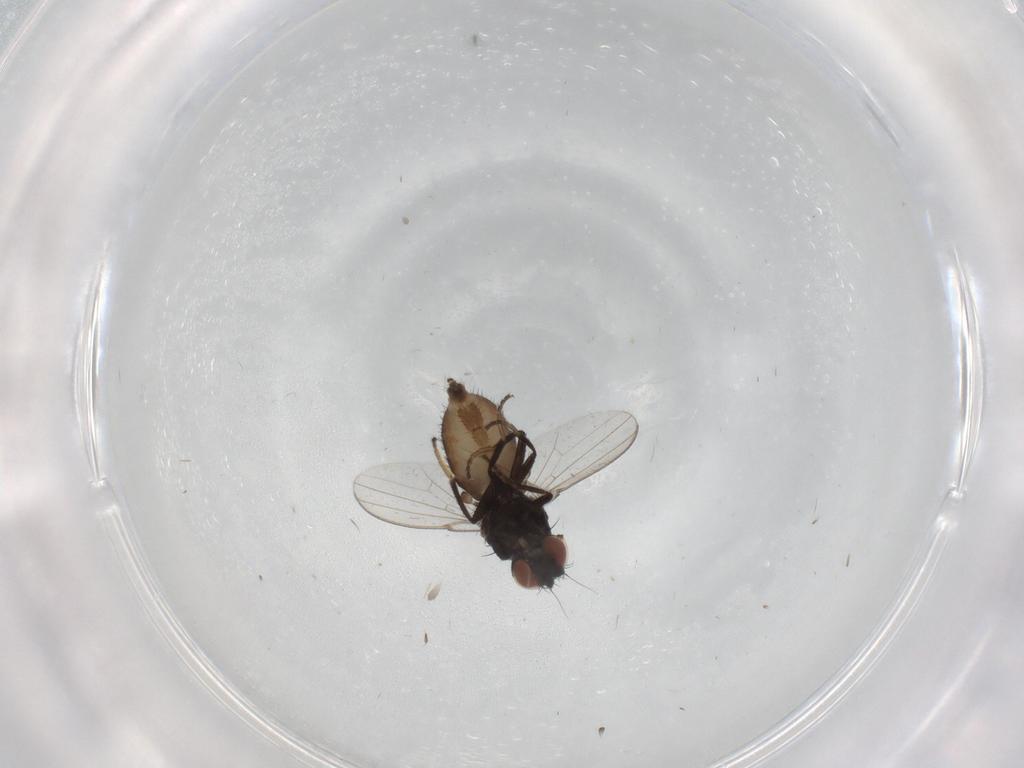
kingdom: Animalia
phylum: Arthropoda
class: Insecta
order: Diptera
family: Milichiidae
